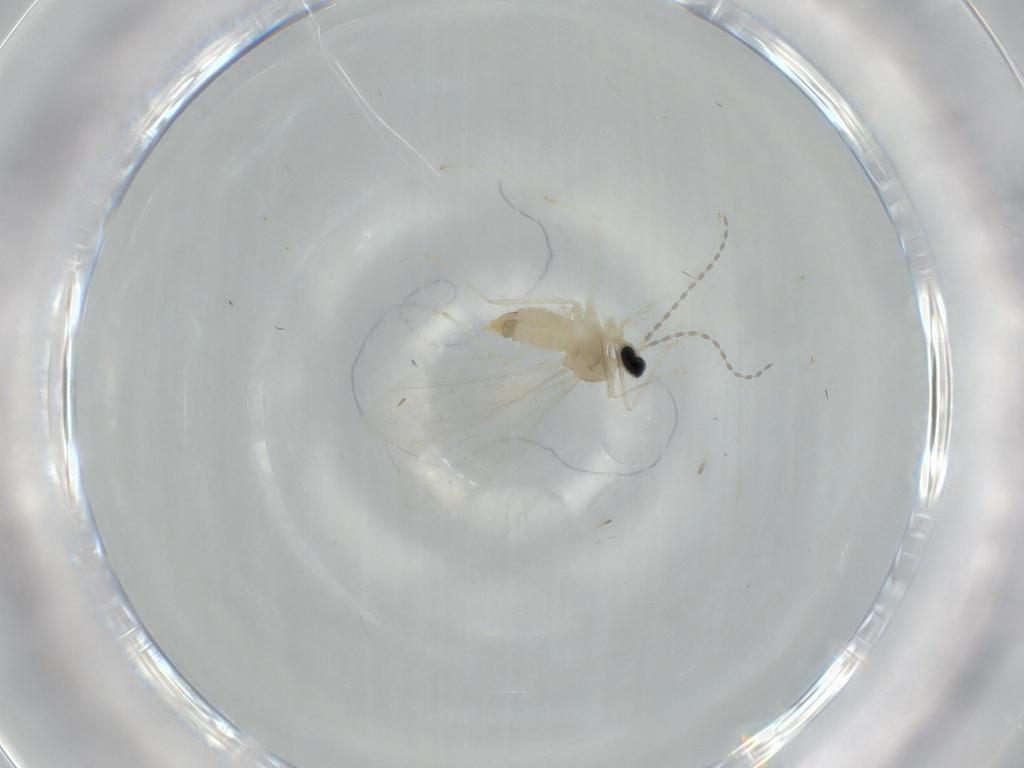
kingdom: Animalia
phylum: Arthropoda
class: Insecta
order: Diptera
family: Cecidomyiidae
